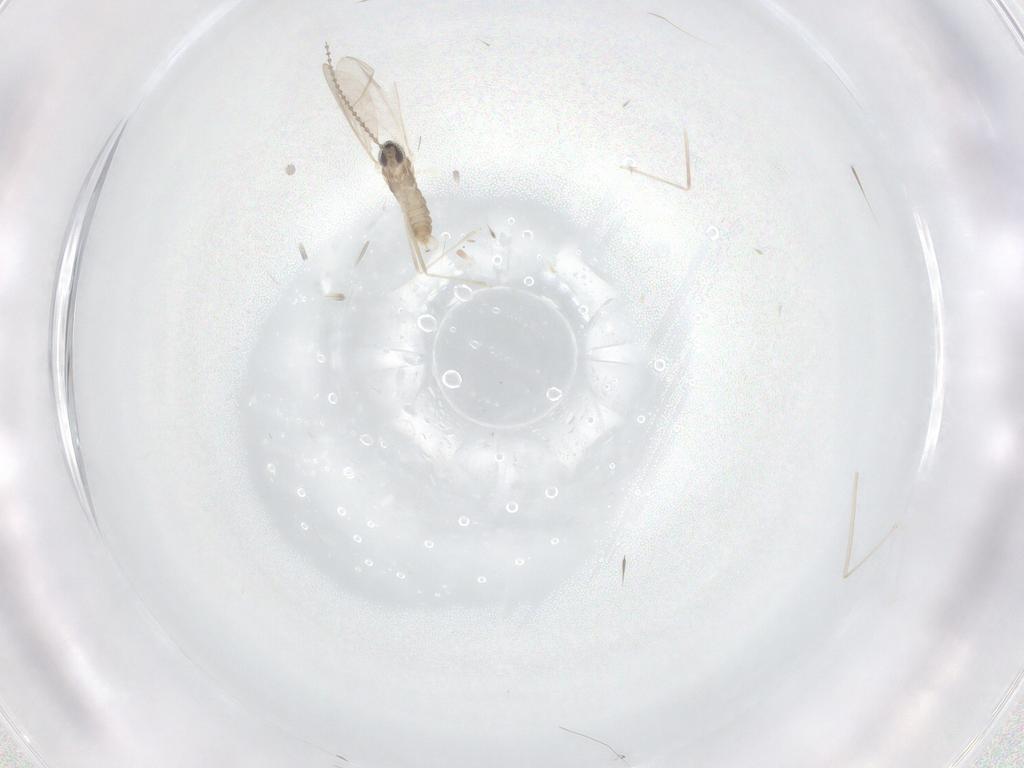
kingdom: Animalia
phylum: Arthropoda
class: Insecta
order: Diptera
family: Cecidomyiidae
